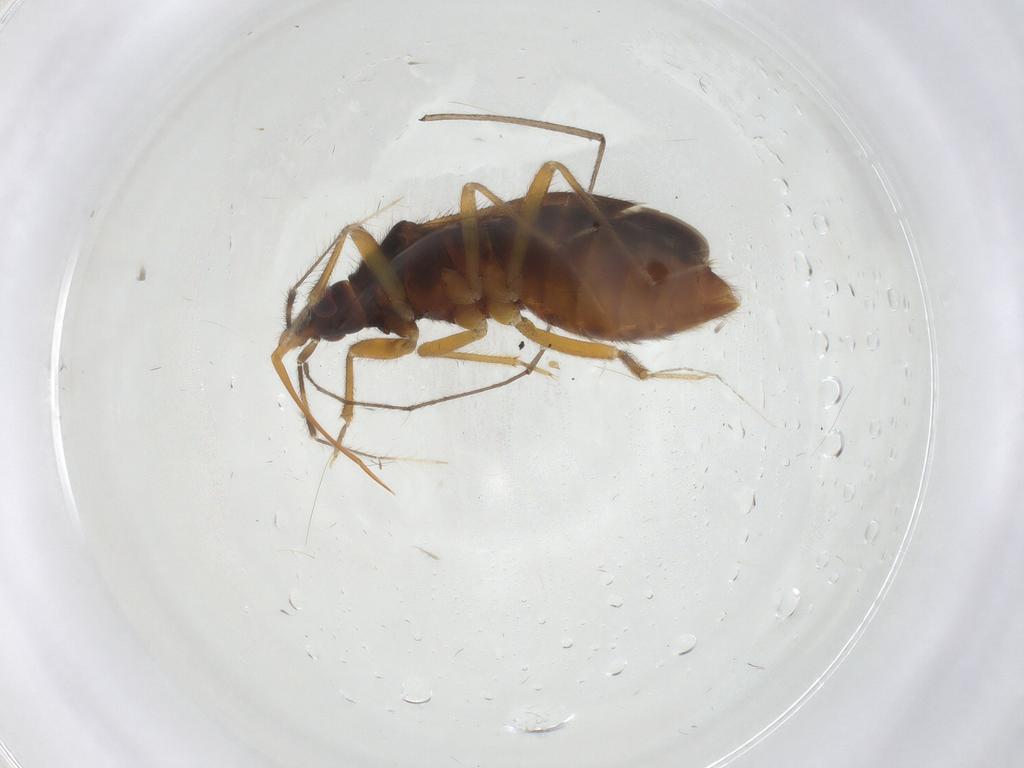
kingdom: Animalia
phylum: Arthropoda
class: Insecta
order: Hemiptera
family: Anthocoridae
